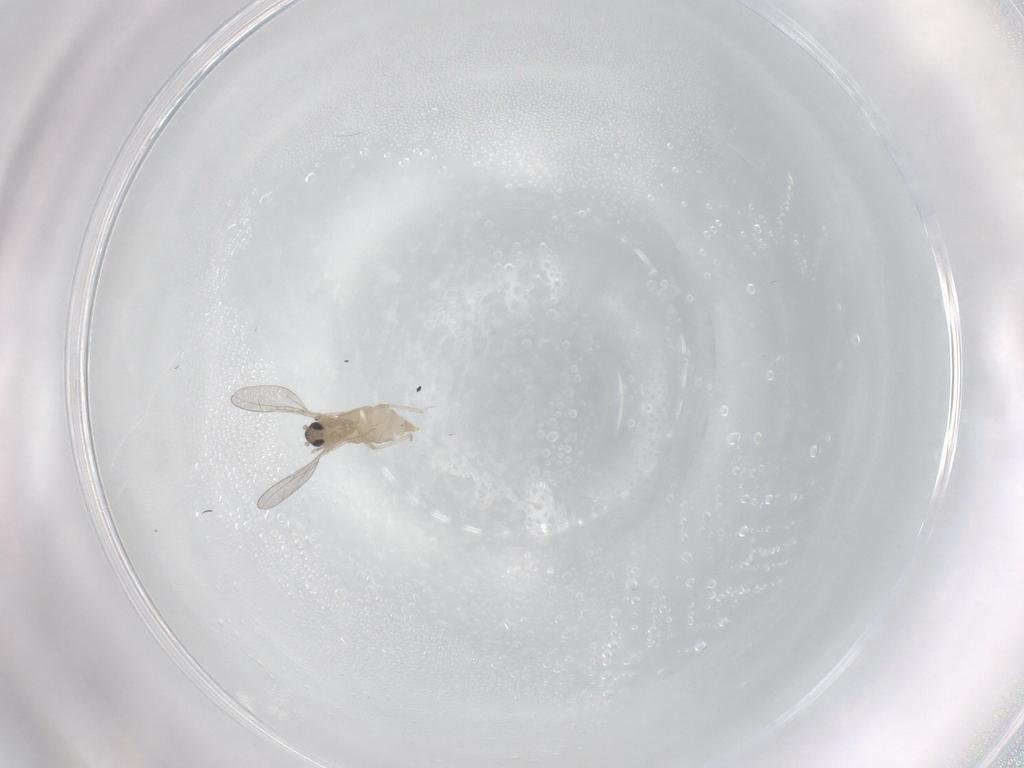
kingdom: Animalia
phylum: Arthropoda
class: Insecta
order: Diptera
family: Cecidomyiidae
